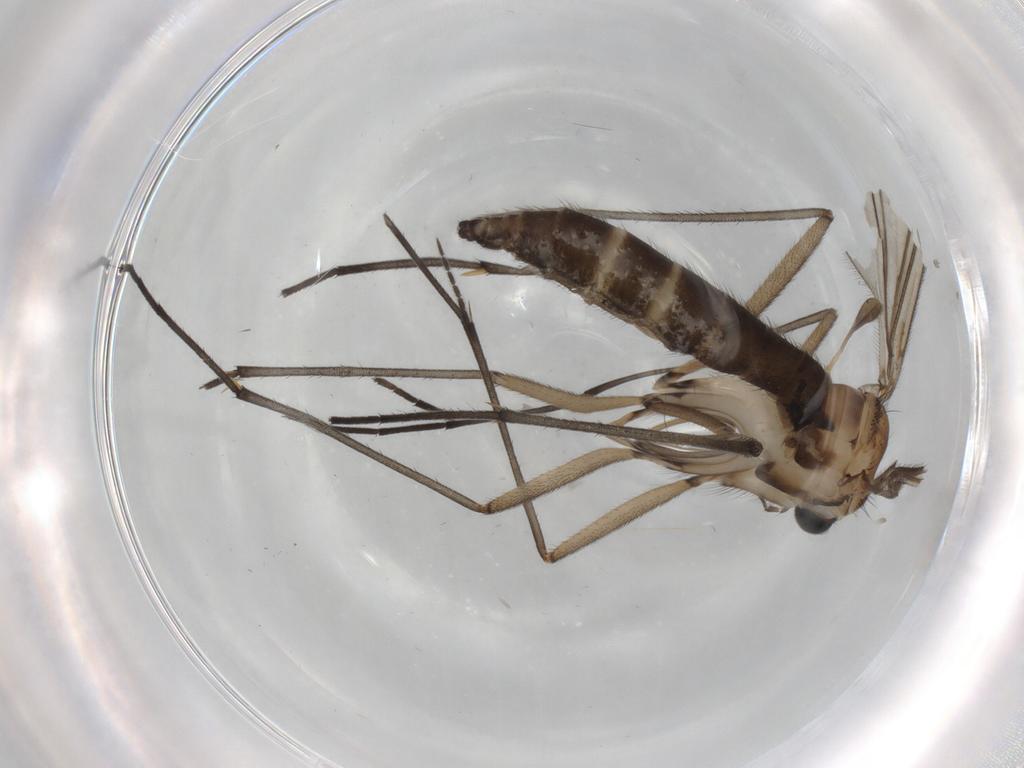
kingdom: Animalia
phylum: Arthropoda
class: Insecta
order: Diptera
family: Sciaridae
